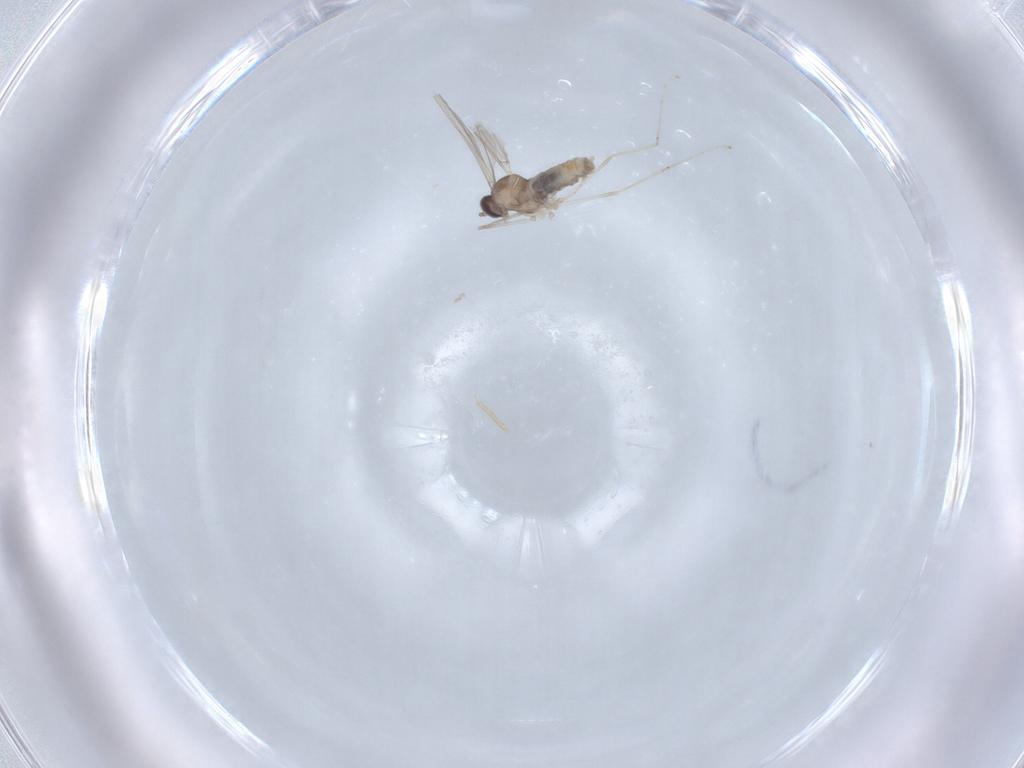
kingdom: Animalia
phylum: Arthropoda
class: Insecta
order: Diptera
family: Cecidomyiidae
